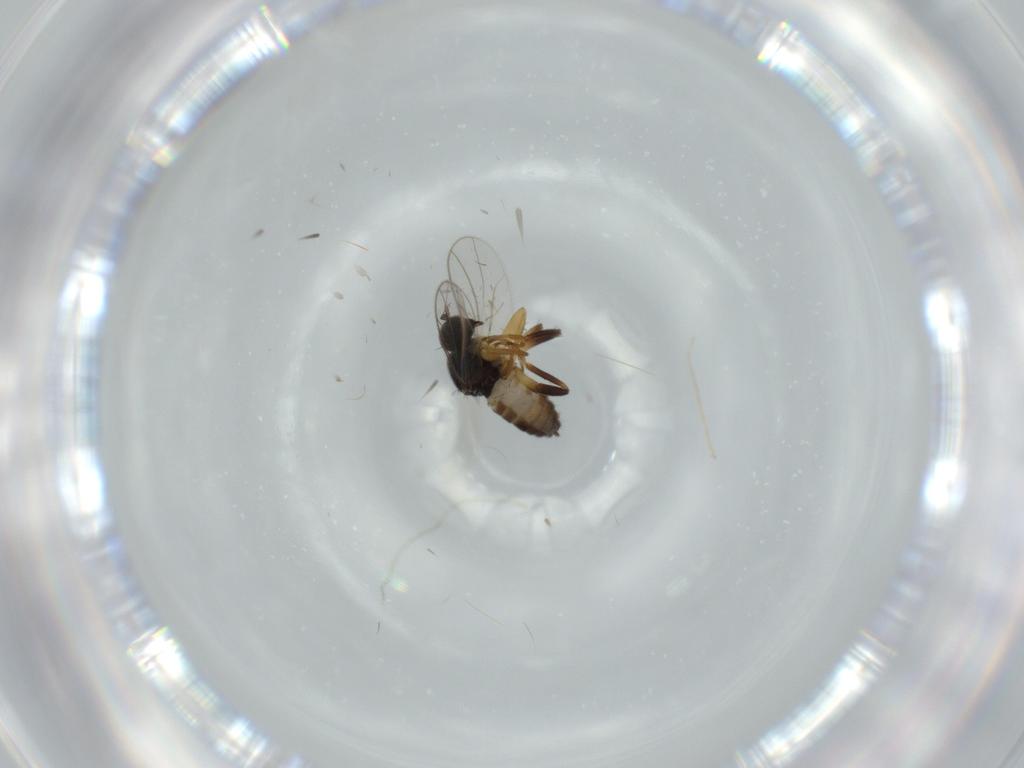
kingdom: Animalia
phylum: Arthropoda
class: Insecta
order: Diptera
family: Hybotidae
